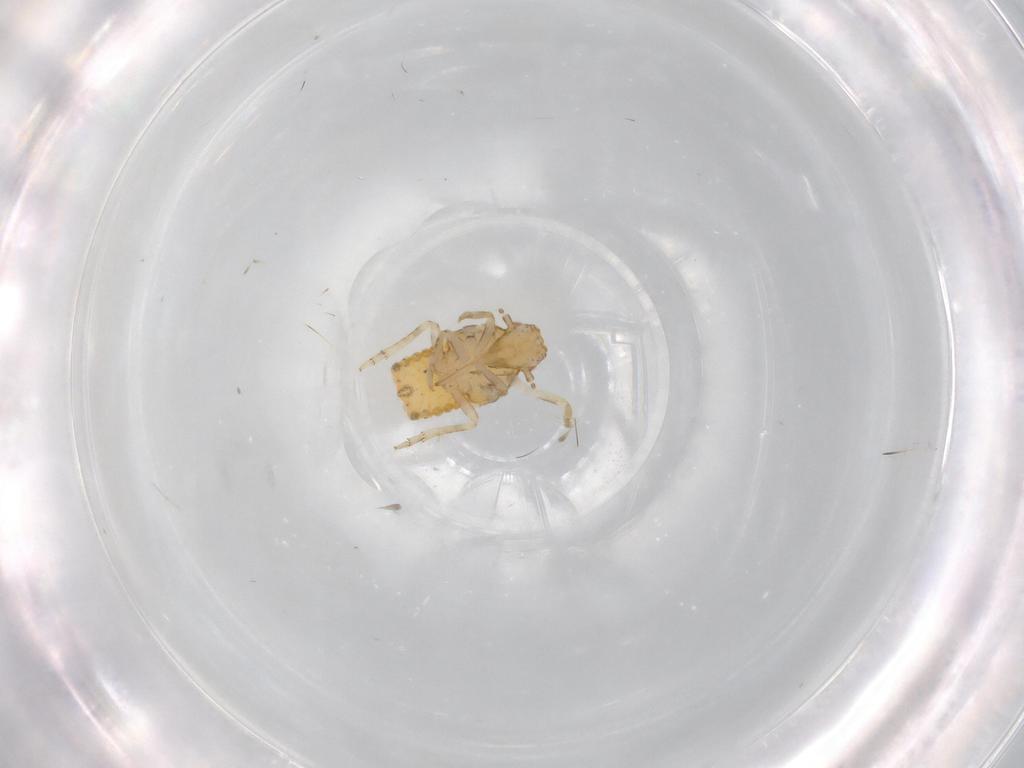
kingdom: Animalia
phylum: Arthropoda
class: Insecta
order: Hemiptera
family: Flatidae
